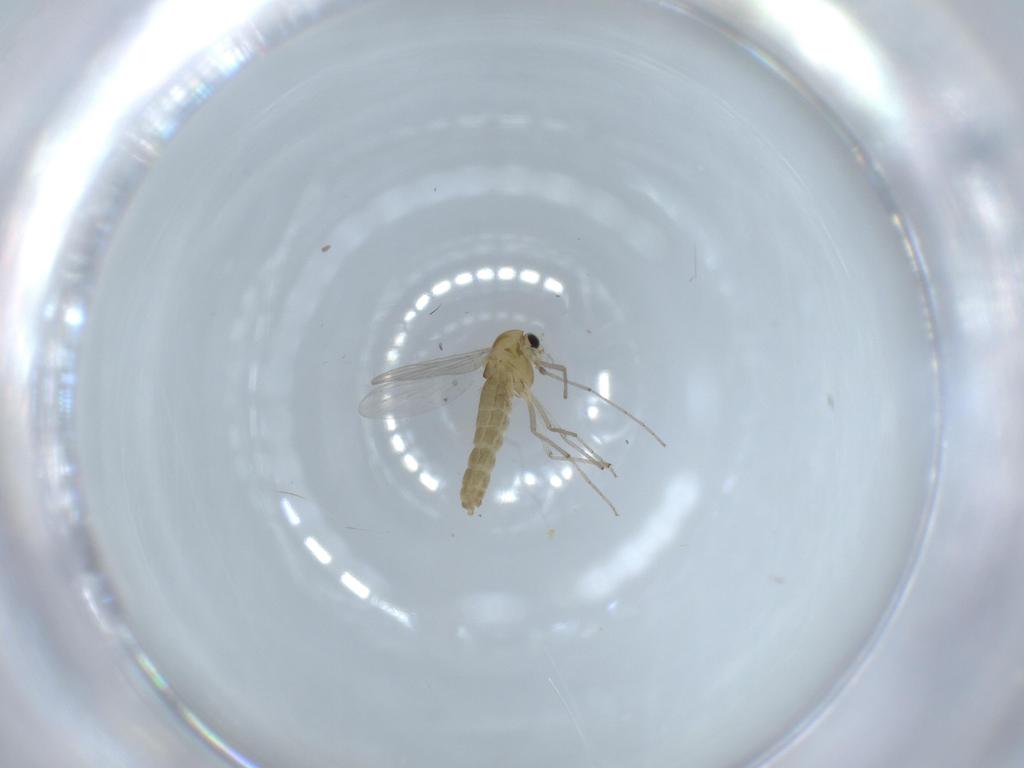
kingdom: Animalia
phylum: Arthropoda
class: Insecta
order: Diptera
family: Chironomidae
